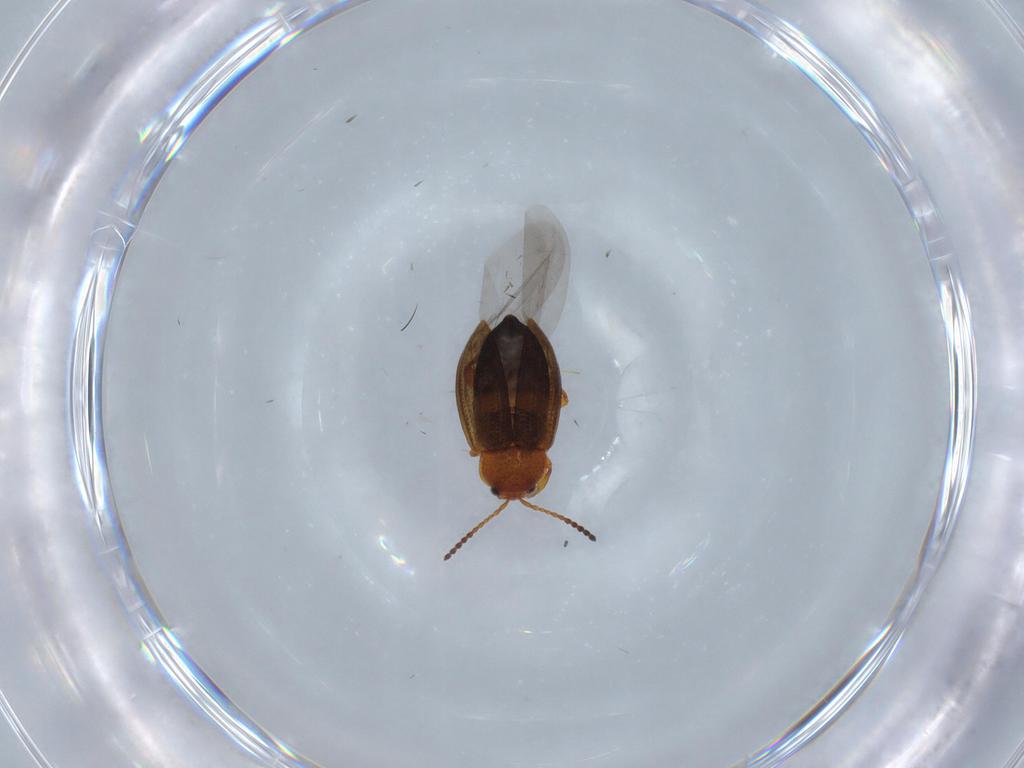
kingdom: Animalia
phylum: Arthropoda
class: Insecta
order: Coleoptera
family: Chrysomelidae
